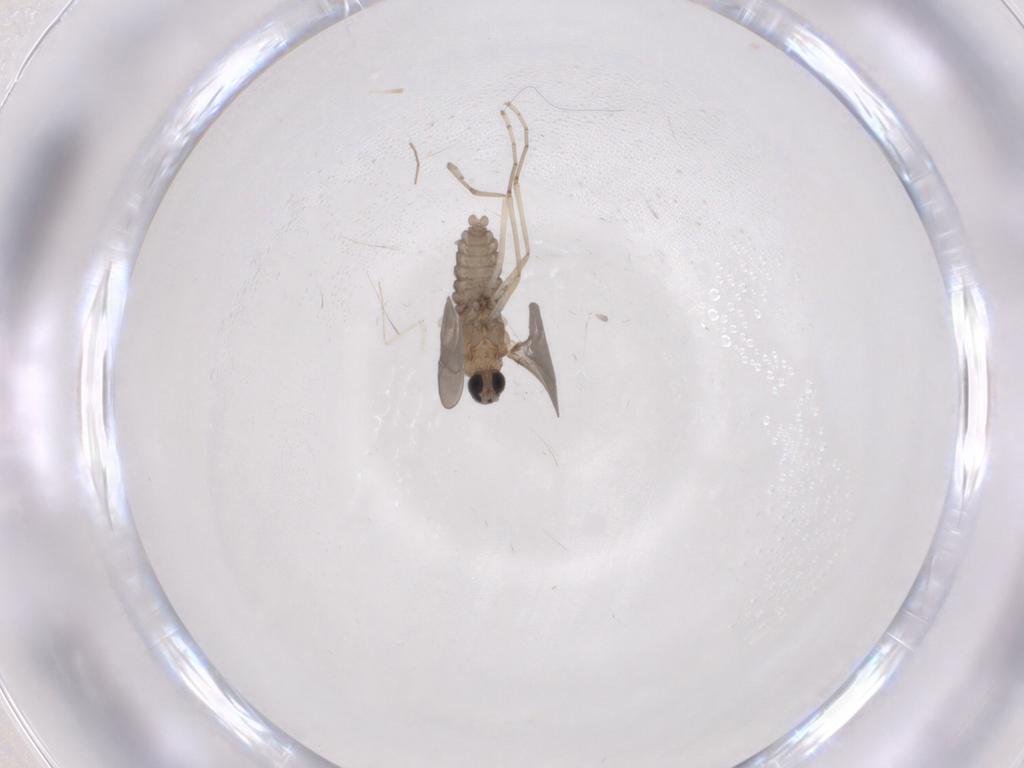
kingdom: Animalia
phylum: Arthropoda
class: Insecta
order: Diptera
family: Cecidomyiidae
